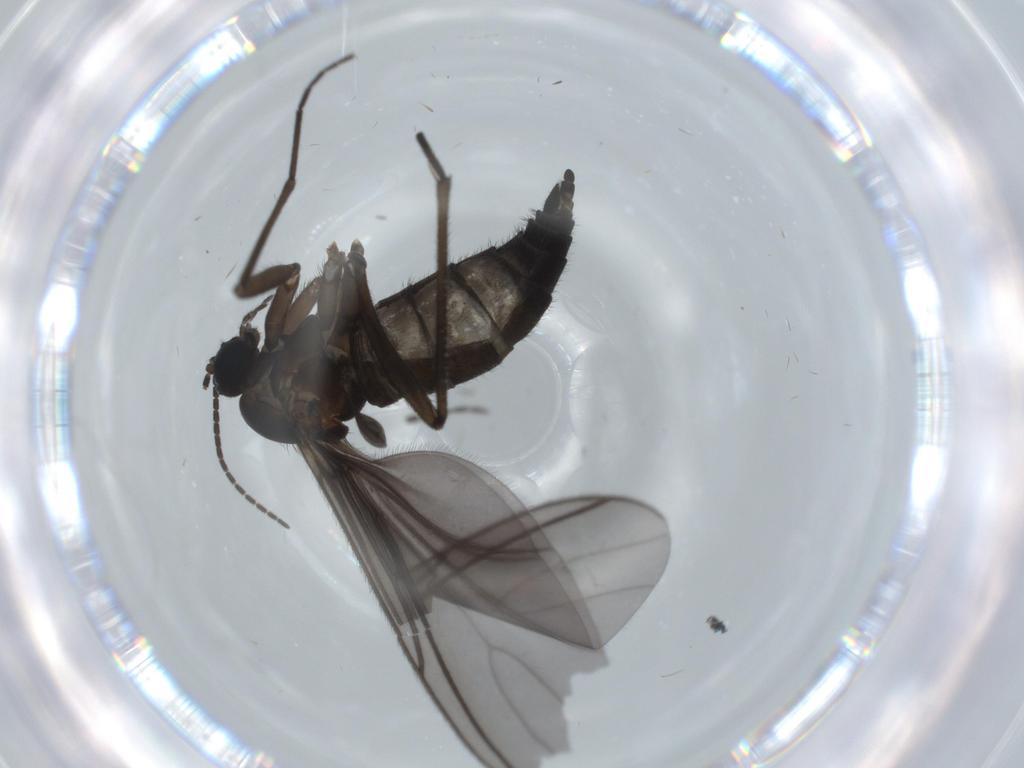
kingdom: Animalia
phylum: Arthropoda
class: Insecta
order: Diptera
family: Sciaridae
